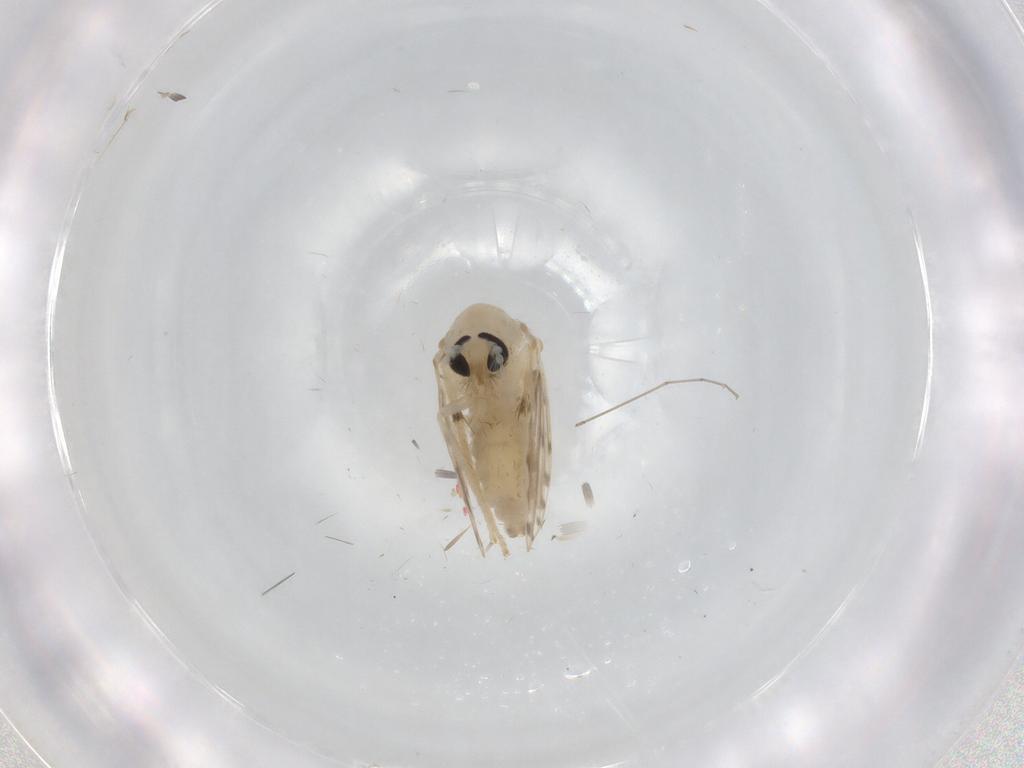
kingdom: Animalia
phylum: Arthropoda
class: Insecta
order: Diptera
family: Psychodidae
